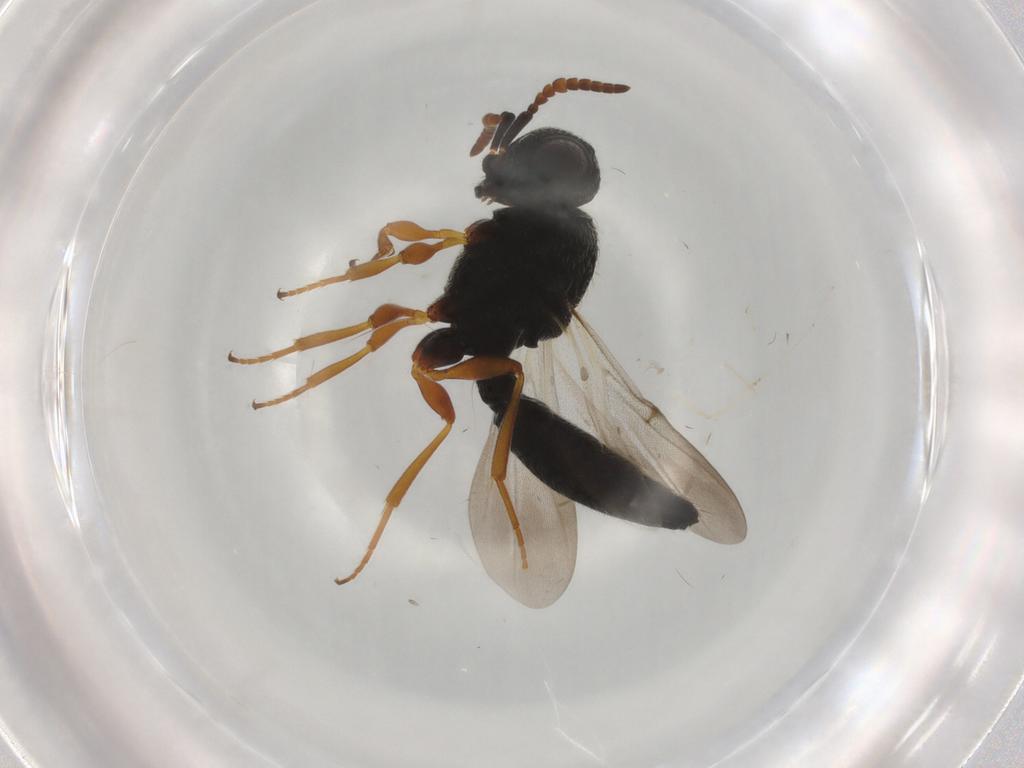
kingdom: Animalia
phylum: Arthropoda
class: Insecta
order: Hymenoptera
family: Scelionidae
